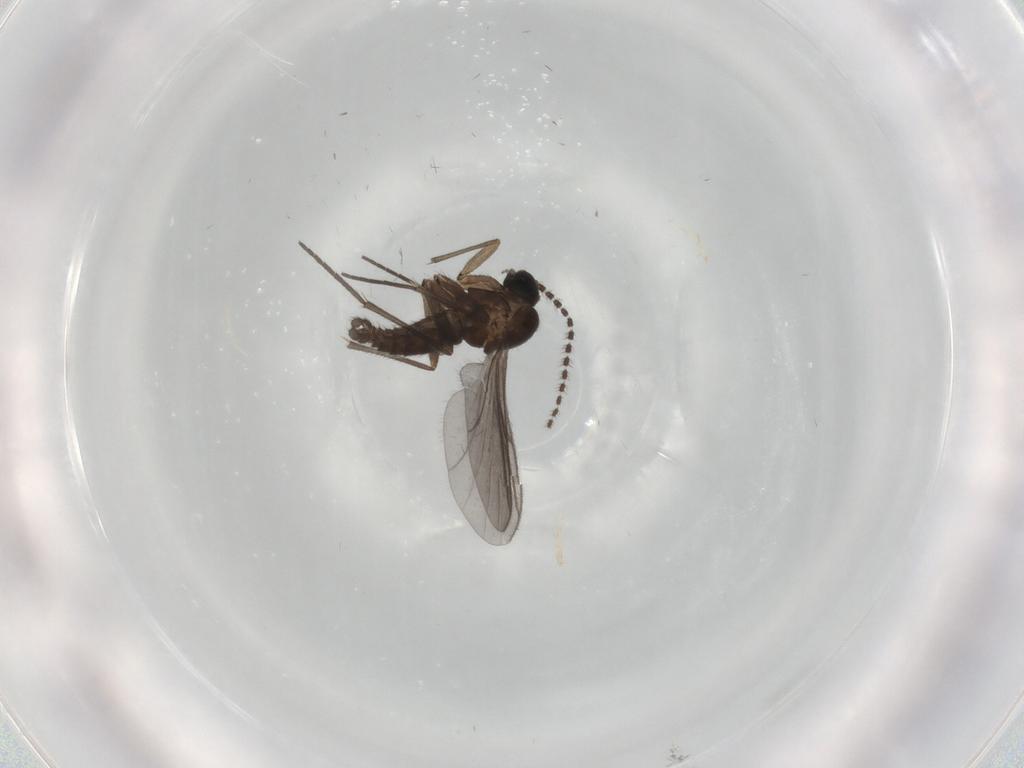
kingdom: Animalia
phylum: Arthropoda
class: Insecta
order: Diptera
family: Sciaridae
